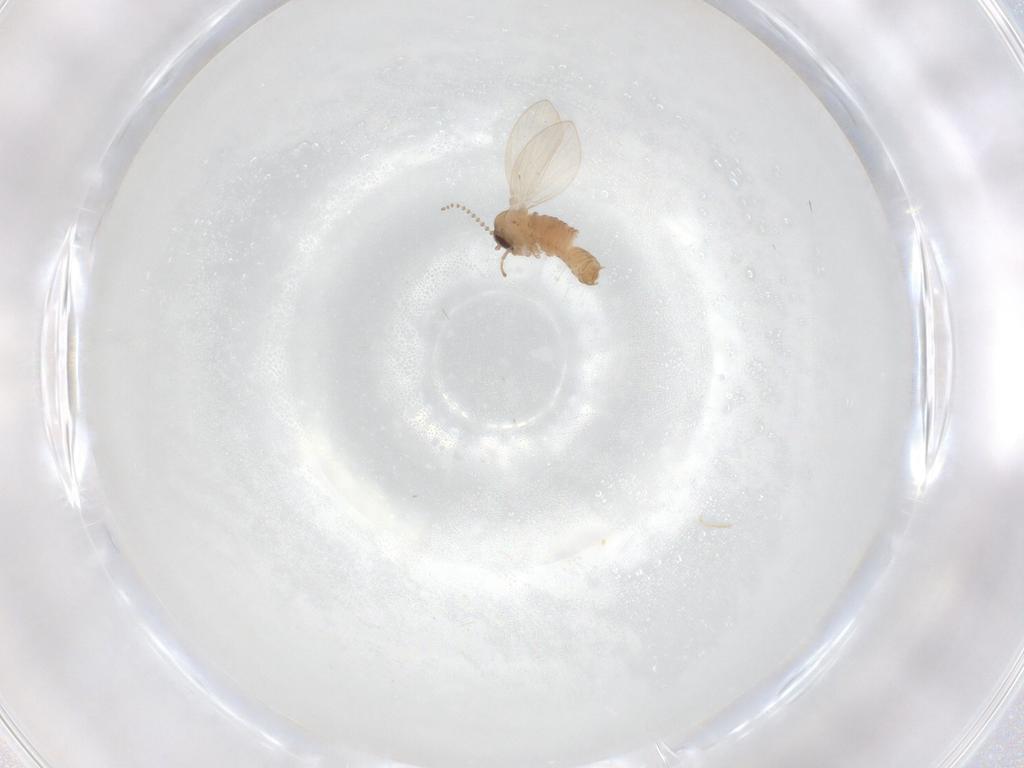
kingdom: Animalia
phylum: Arthropoda
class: Insecta
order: Diptera
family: Psychodidae
